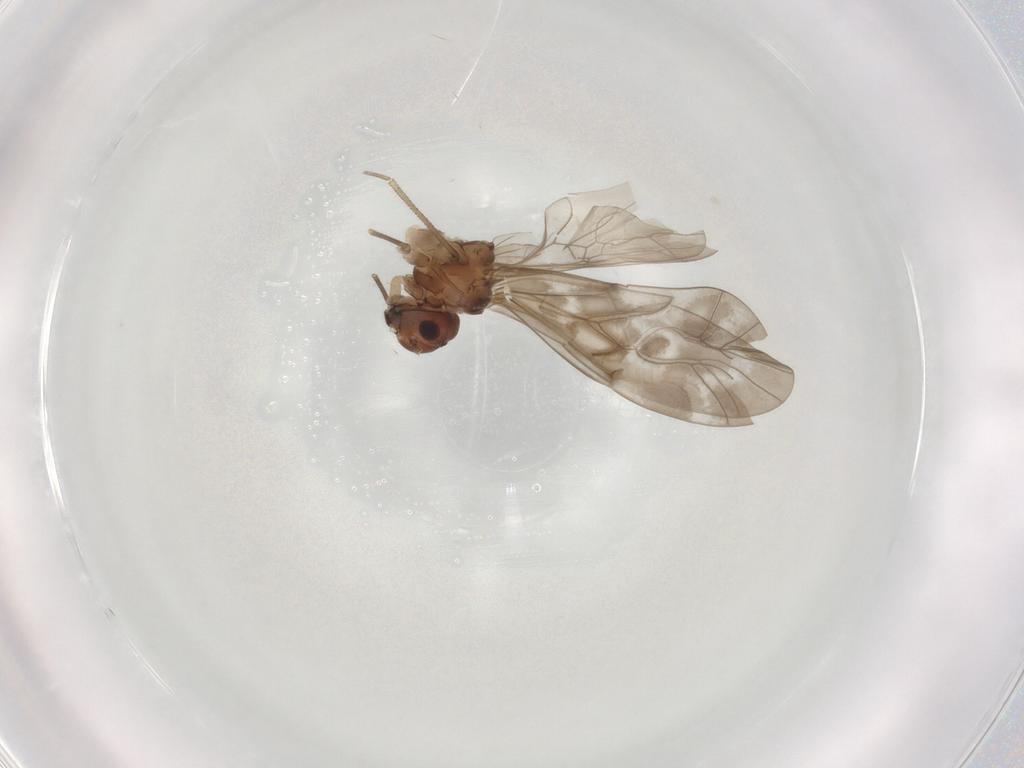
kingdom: Animalia
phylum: Arthropoda
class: Insecta
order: Psocodea
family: Peripsocidae
